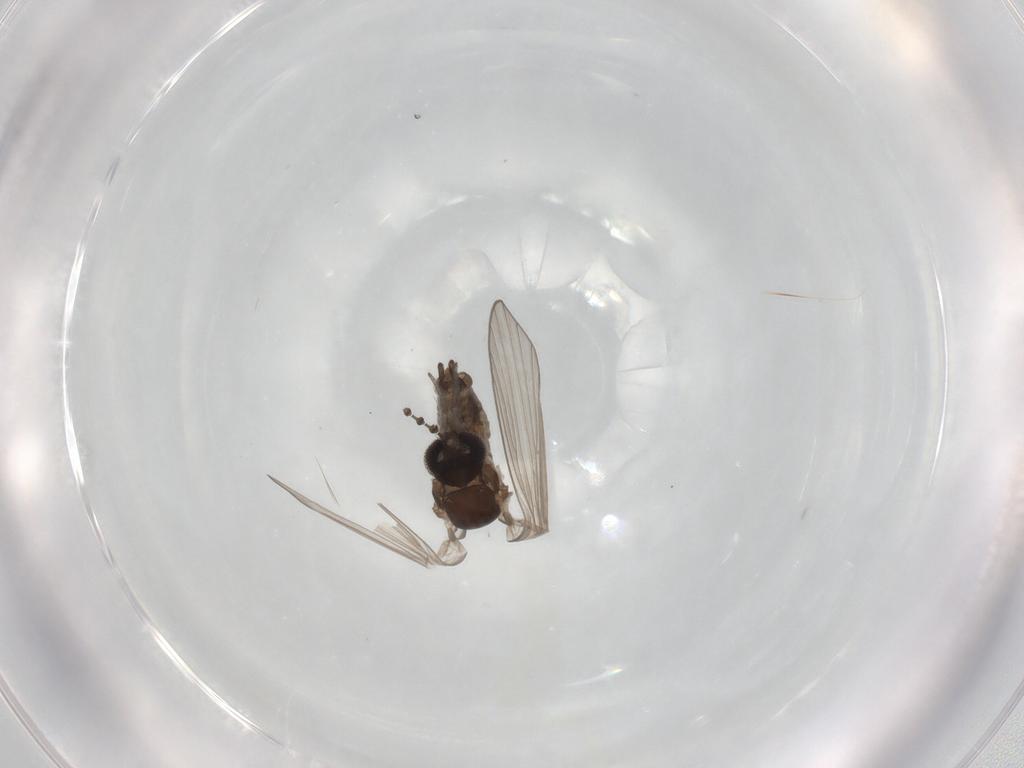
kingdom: Animalia
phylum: Arthropoda
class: Insecta
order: Diptera
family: Psychodidae
